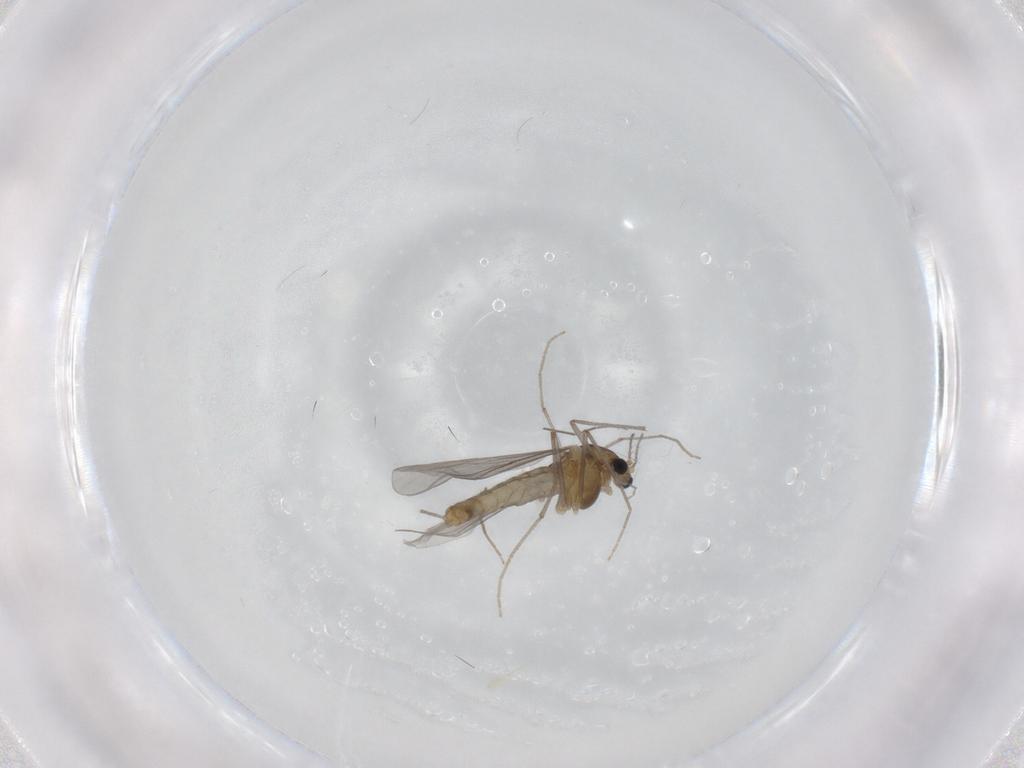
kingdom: Animalia
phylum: Arthropoda
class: Insecta
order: Diptera
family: Chironomidae
